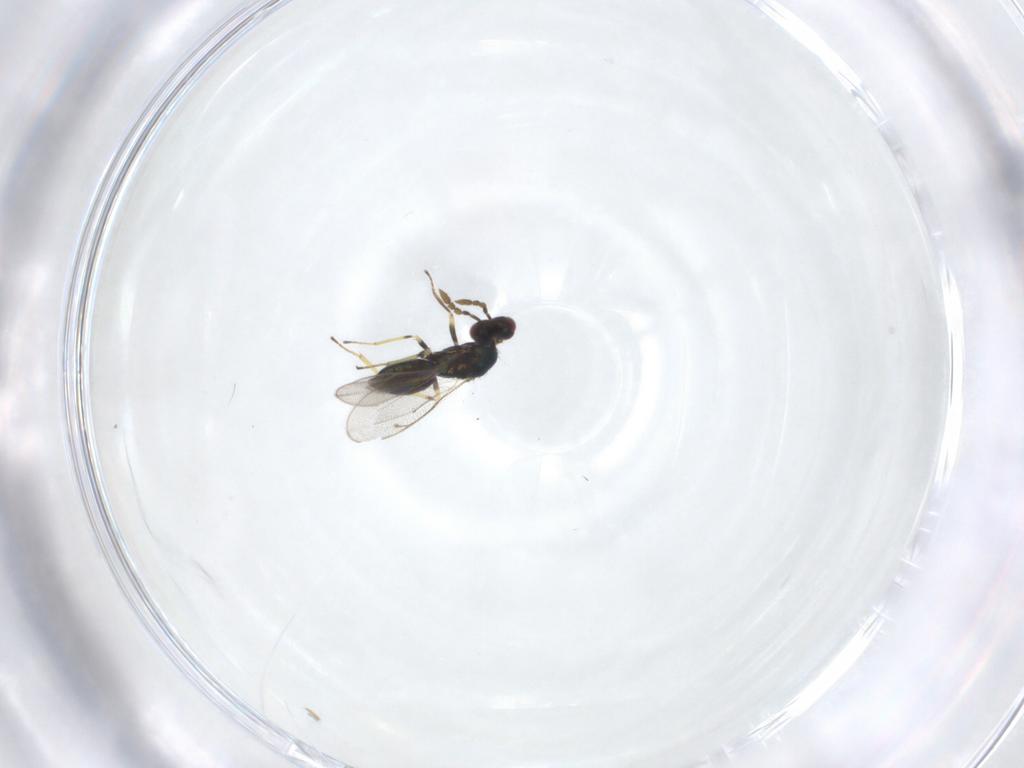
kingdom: Animalia
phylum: Arthropoda
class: Insecta
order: Hymenoptera
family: Eulophidae
